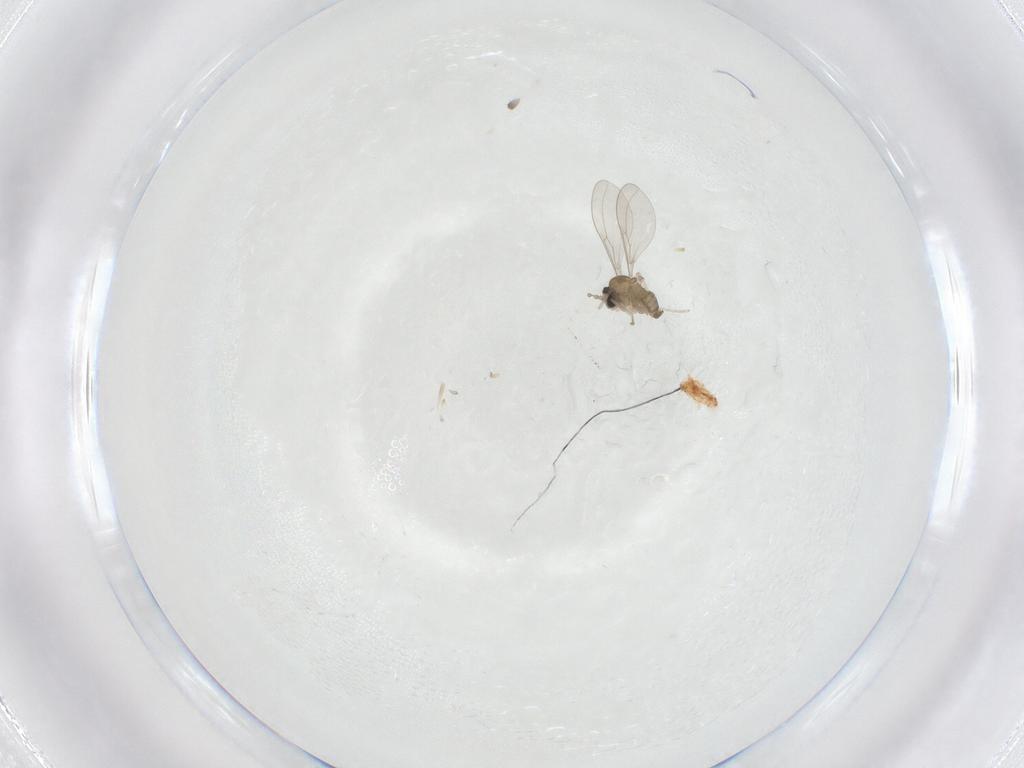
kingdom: Animalia
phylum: Arthropoda
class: Insecta
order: Diptera
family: Cecidomyiidae
